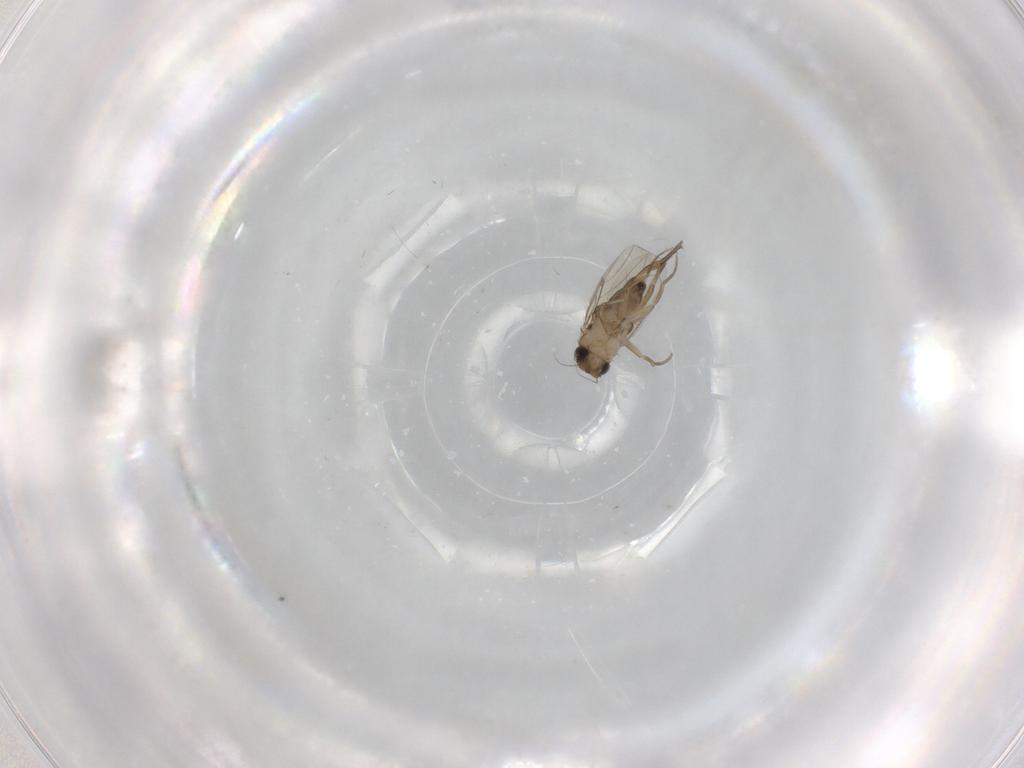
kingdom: Animalia
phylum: Arthropoda
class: Insecta
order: Diptera
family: Phoridae
